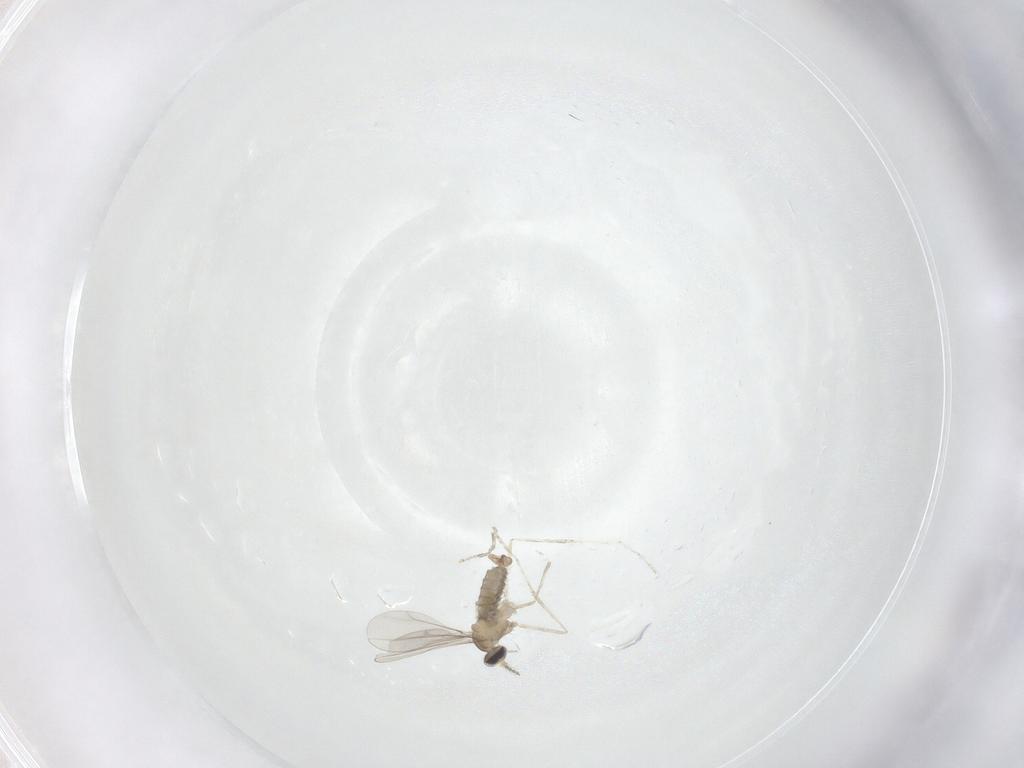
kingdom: Animalia
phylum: Arthropoda
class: Insecta
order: Diptera
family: Cecidomyiidae
